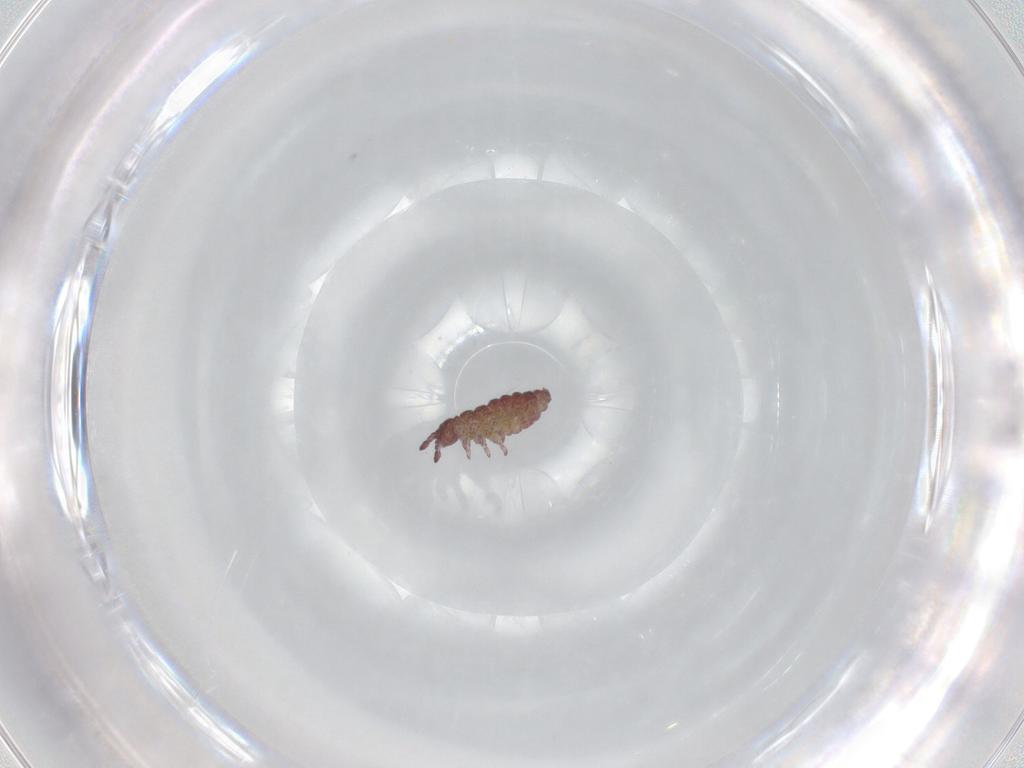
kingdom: Animalia
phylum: Arthropoda
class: Collembola
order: Poduromorpha
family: Hypogastruridae
